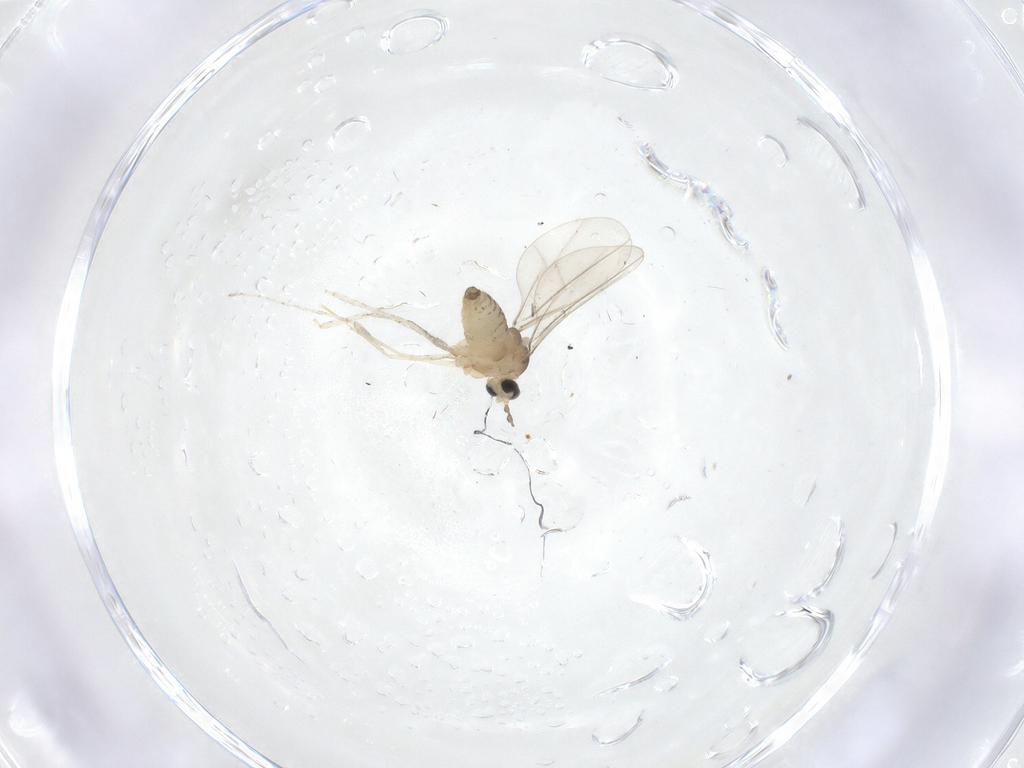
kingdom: Animalia
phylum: Arthropoda
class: Insecta
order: Diptera
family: Cecidomyiidae
